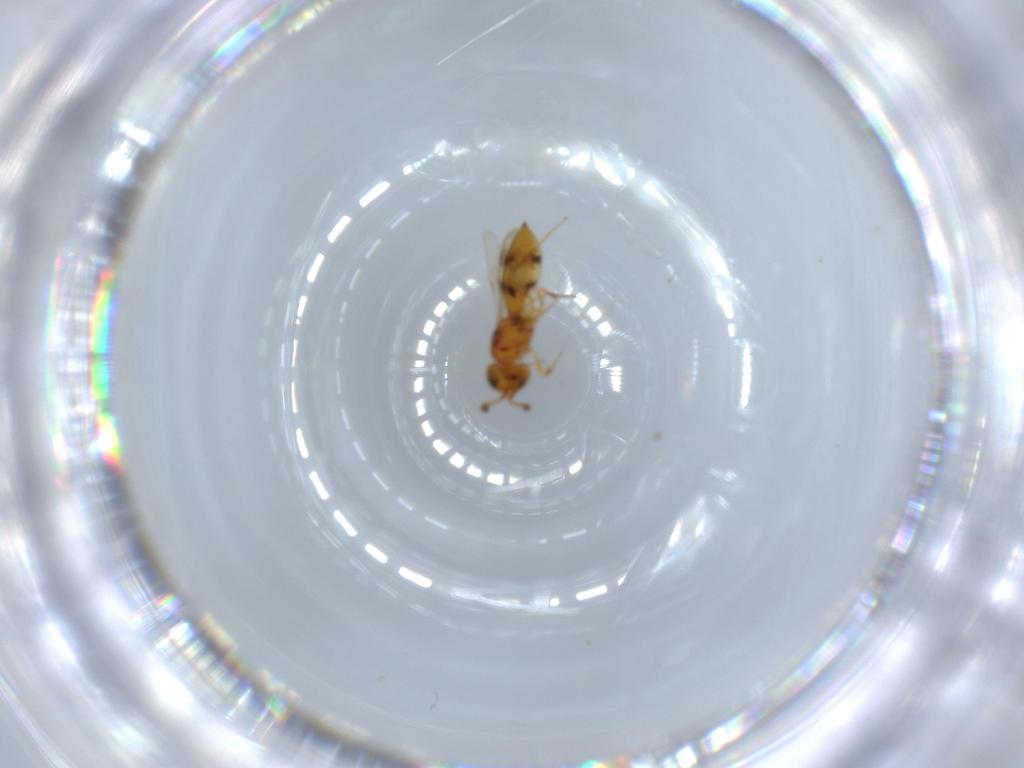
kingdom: Animalia
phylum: Arthropoda
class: Insecta
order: Hymenoptera
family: Scelionidae
